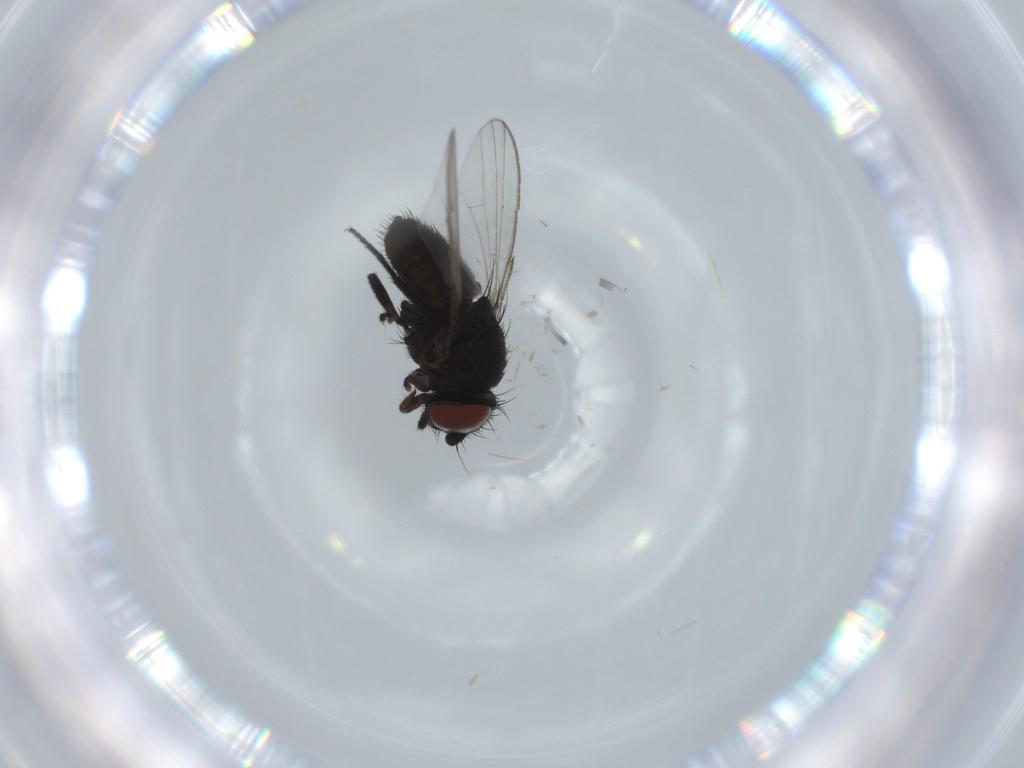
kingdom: Animalia
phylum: Arthropoda
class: Insecta
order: Diptera
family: Milichiidae
